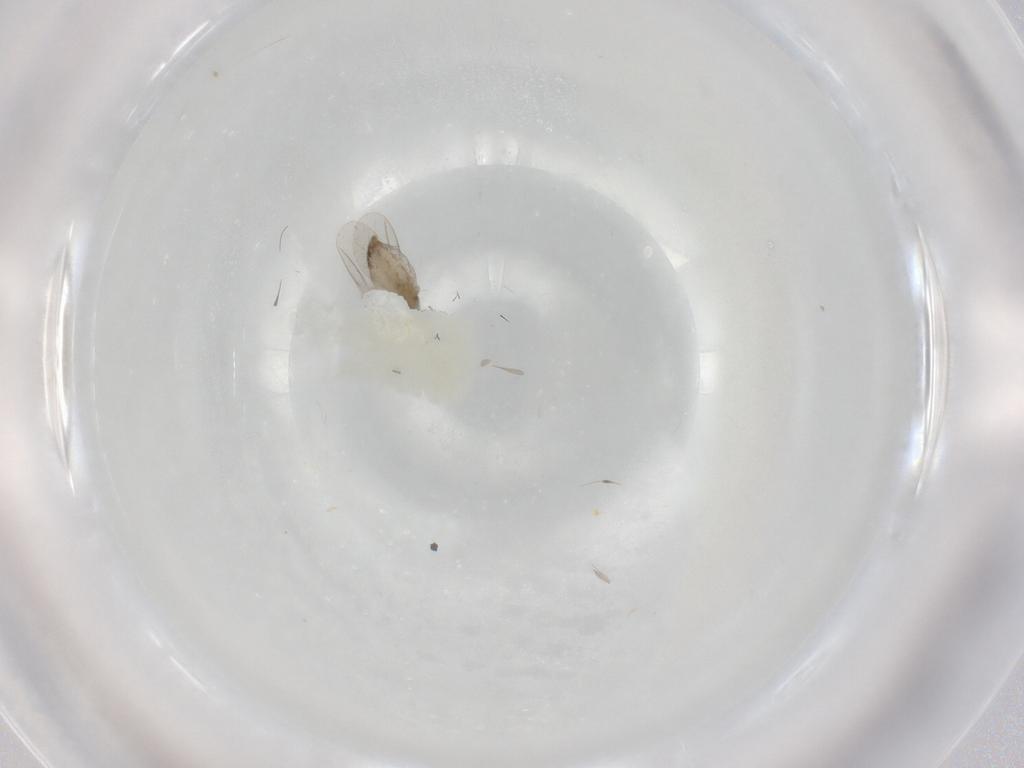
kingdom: Animalia
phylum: Arthropoda
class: Insecta
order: Diptera
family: Cecidomyiidae
